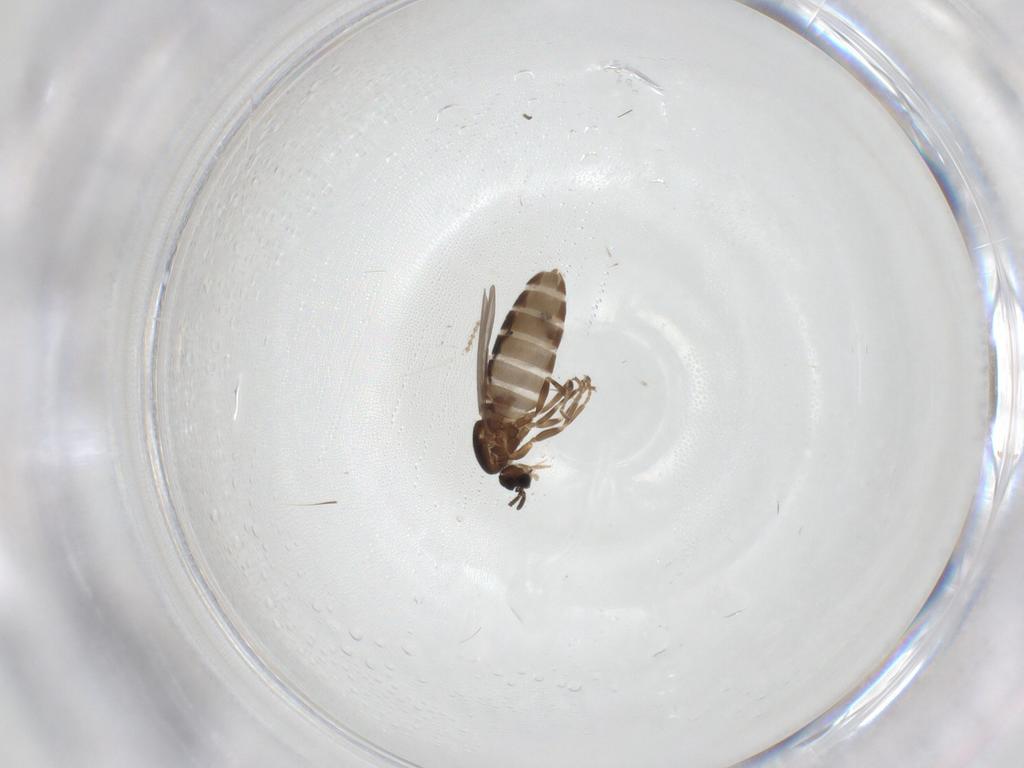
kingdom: Animalia
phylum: Arthropoda
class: Insecta
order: Diptera
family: Scatopsidae
